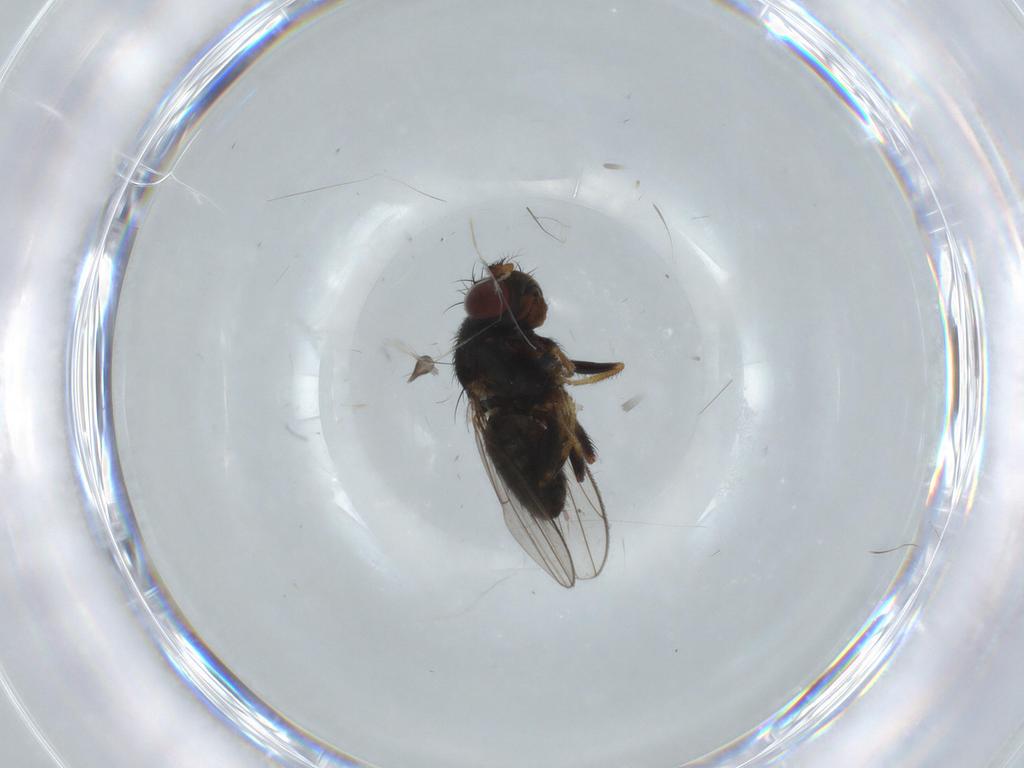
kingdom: Animalia
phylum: Arthropoda
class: Insecta
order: Diptera
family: Cecidomyiidae
